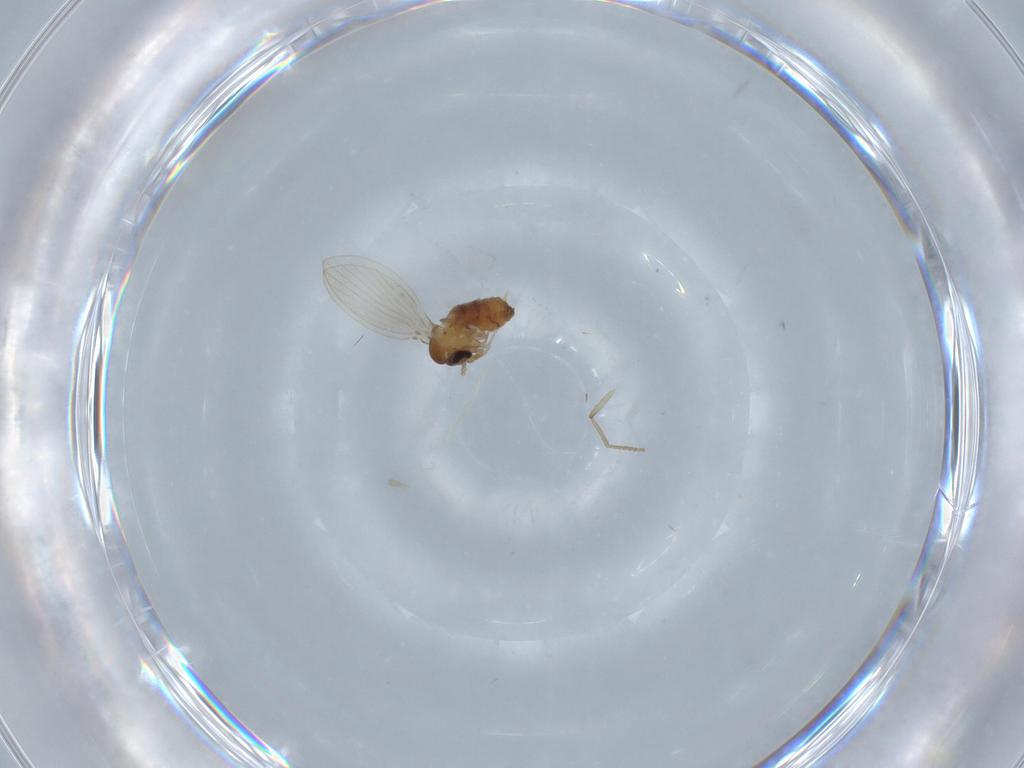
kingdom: Animalia
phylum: Arthropoda
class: Insecta
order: Diptera
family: Psychodidae
